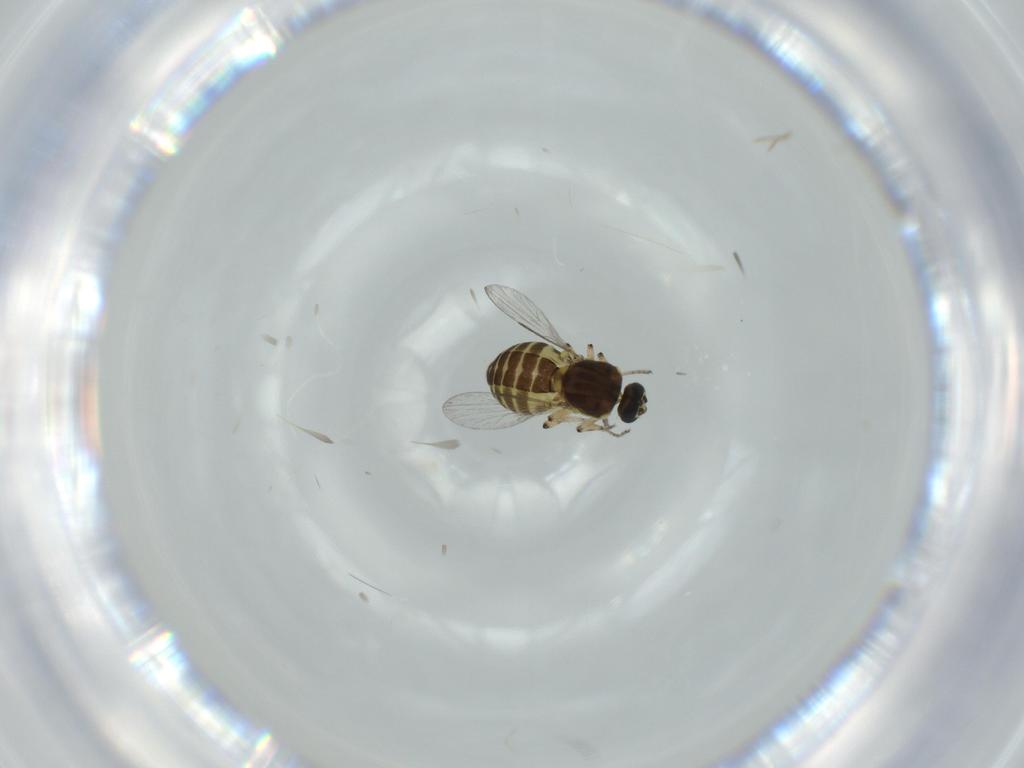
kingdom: Animalia
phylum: Arthropoda
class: Insecta
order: Diptera
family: Ceratopogonidae
